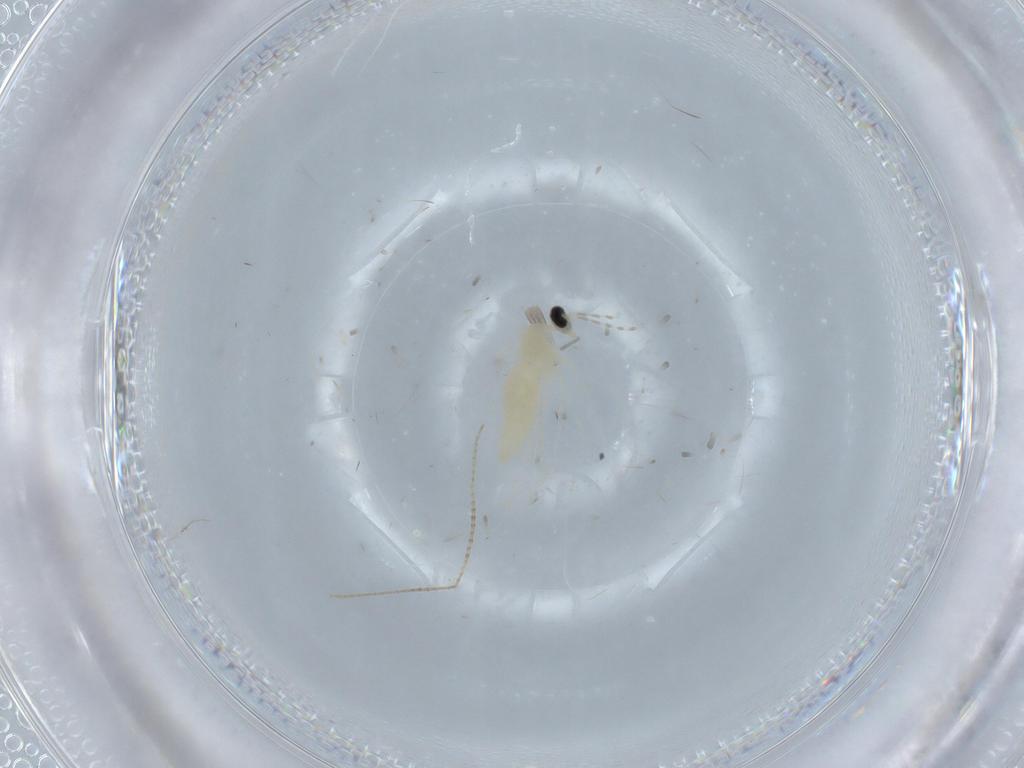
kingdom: Animalia
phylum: Arthropoda
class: Insecta
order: Diptera
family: Cecidomyiidae
